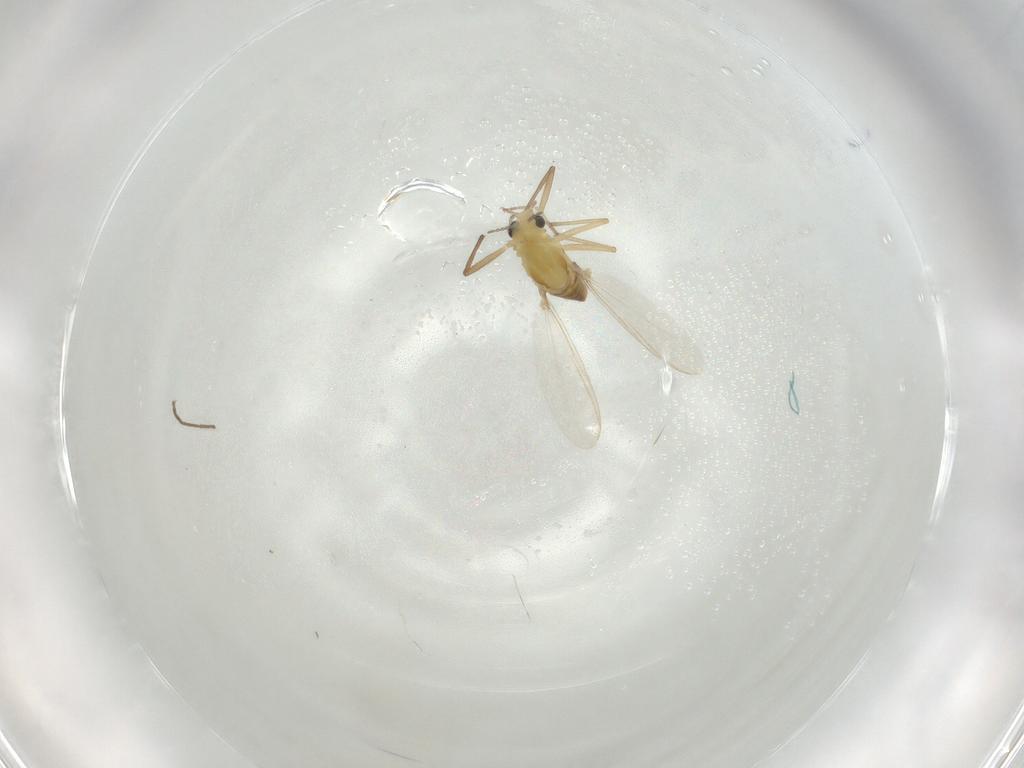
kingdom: Animalia
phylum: Arthropoda
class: Insecta
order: Diptera
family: Chironomidae
